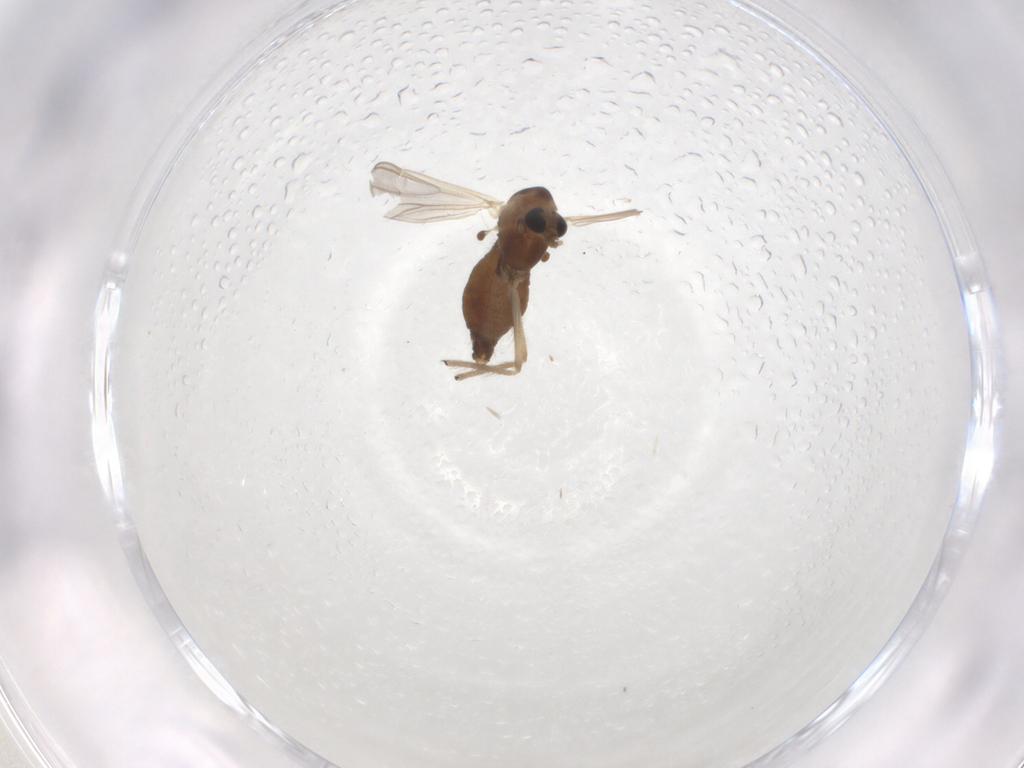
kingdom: Animalia
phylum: Arthropoda
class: Insecta
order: Diptera
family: Chironomidae
